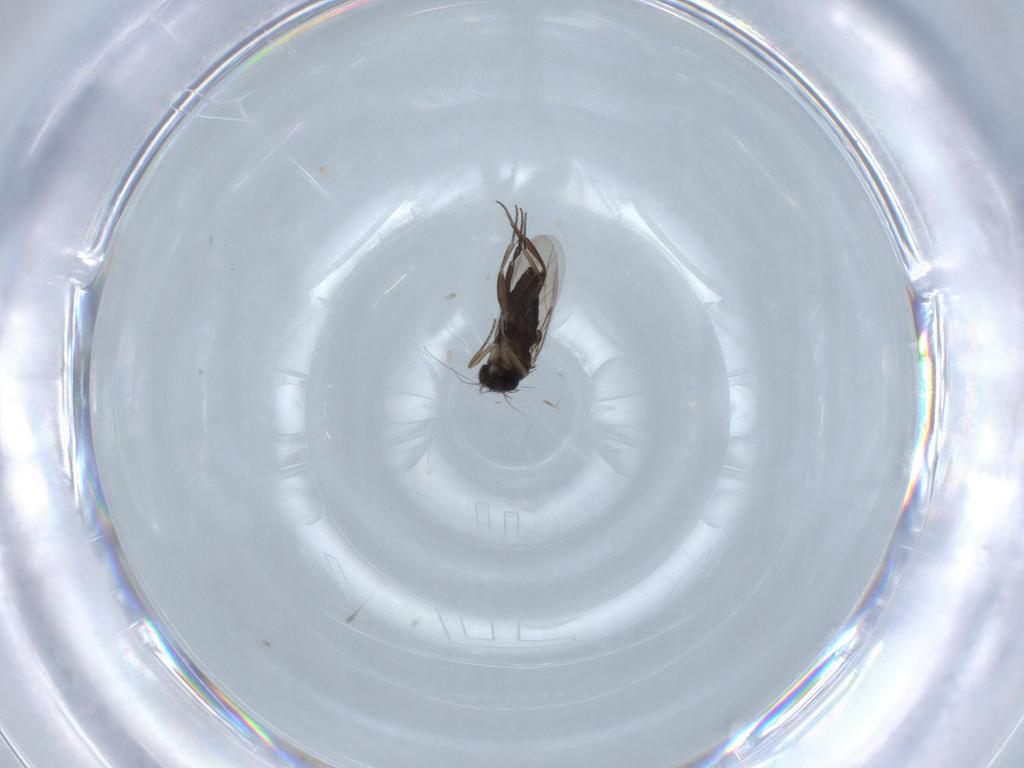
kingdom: Animalia
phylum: Arthropoda
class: Insecta
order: Diptera
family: Phoridae
